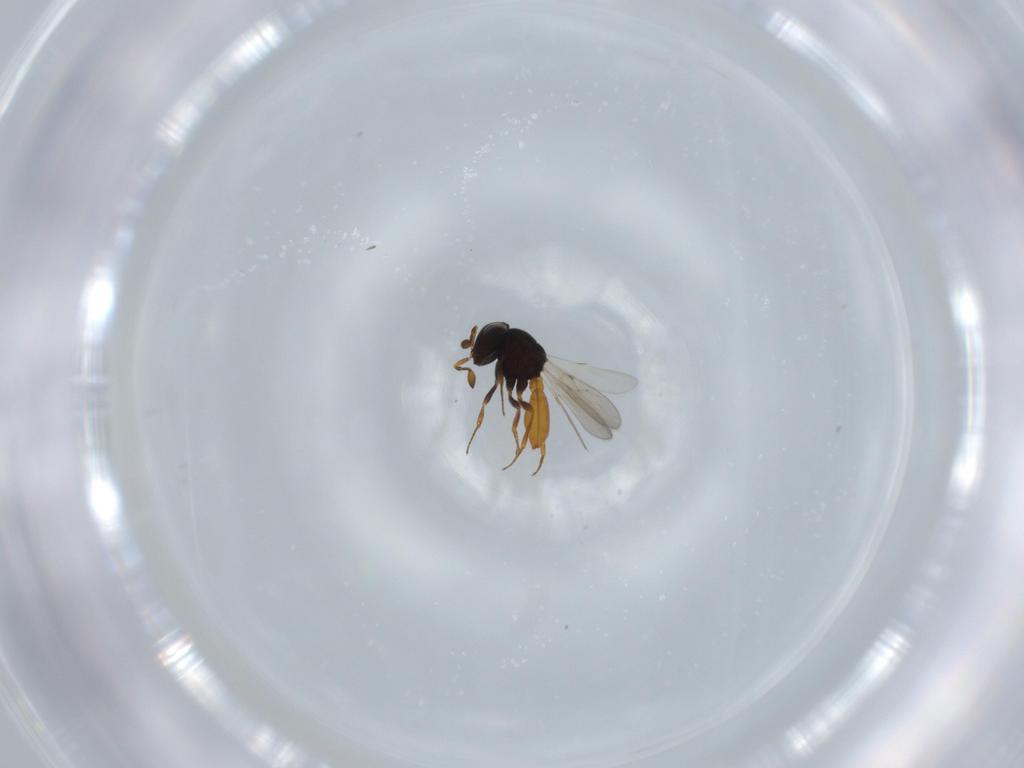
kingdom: Animalia
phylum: Arthropoda
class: Insecta
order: Hymenoptera
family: Scelionidae
